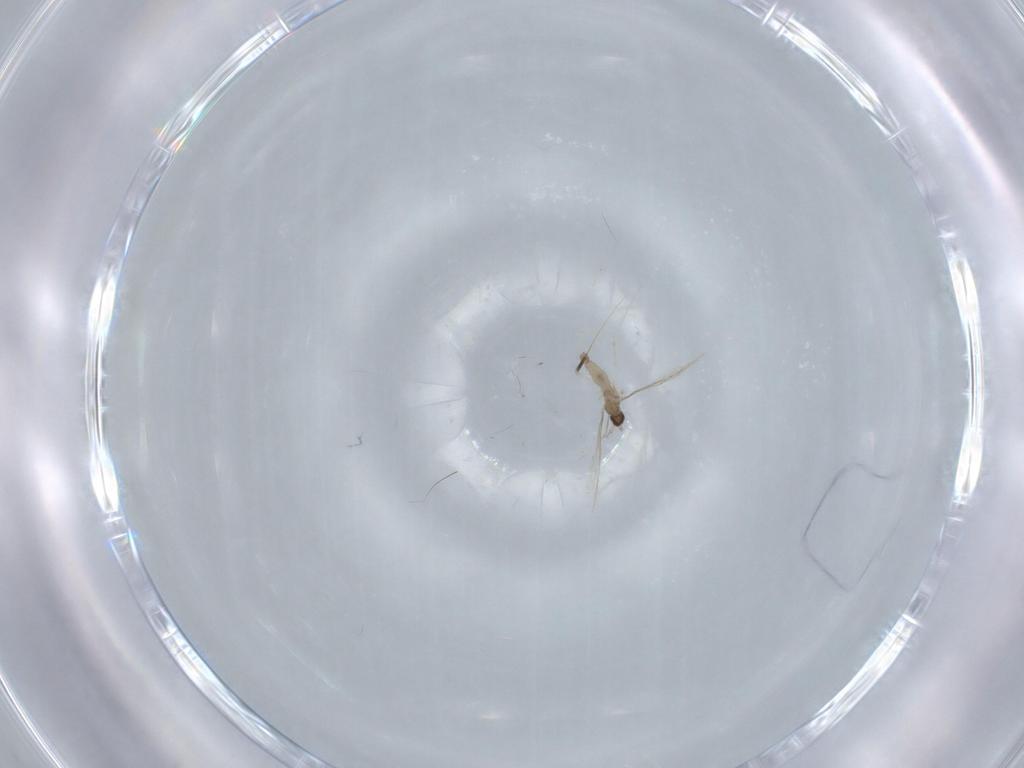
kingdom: Animalia
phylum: Arthropoda
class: Insecta
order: Diptera
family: Cecidomyiidae
